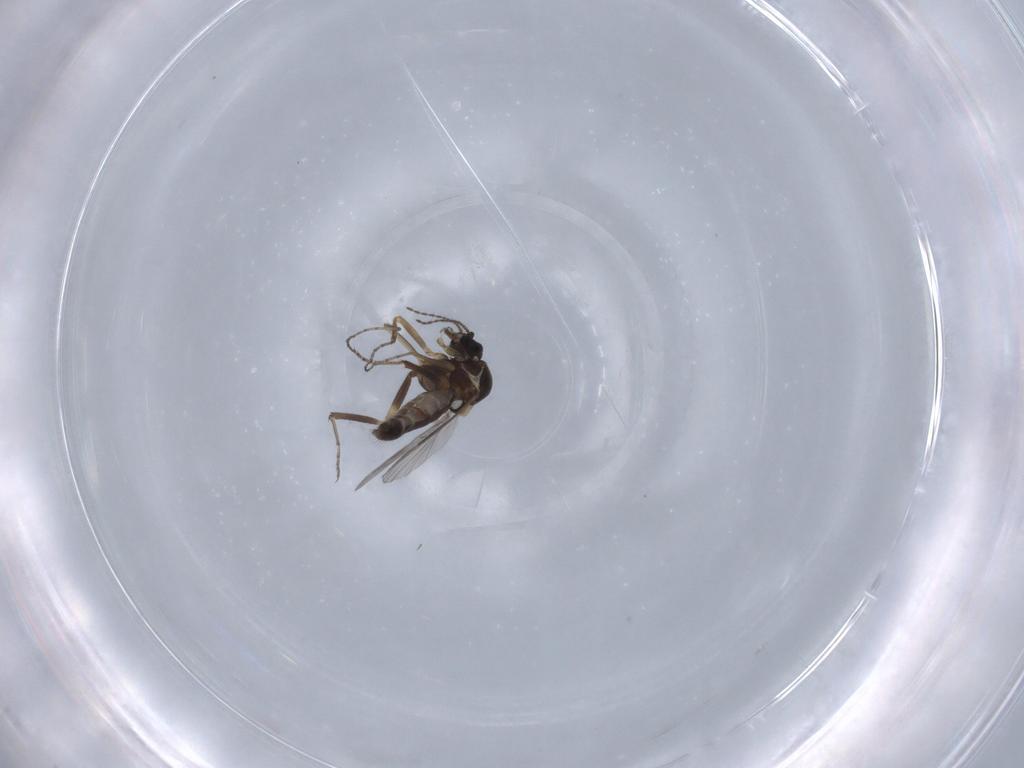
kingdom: Animalia
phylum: Arthropoda
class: Insecta
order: Diptera
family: Ceratopogonidae
